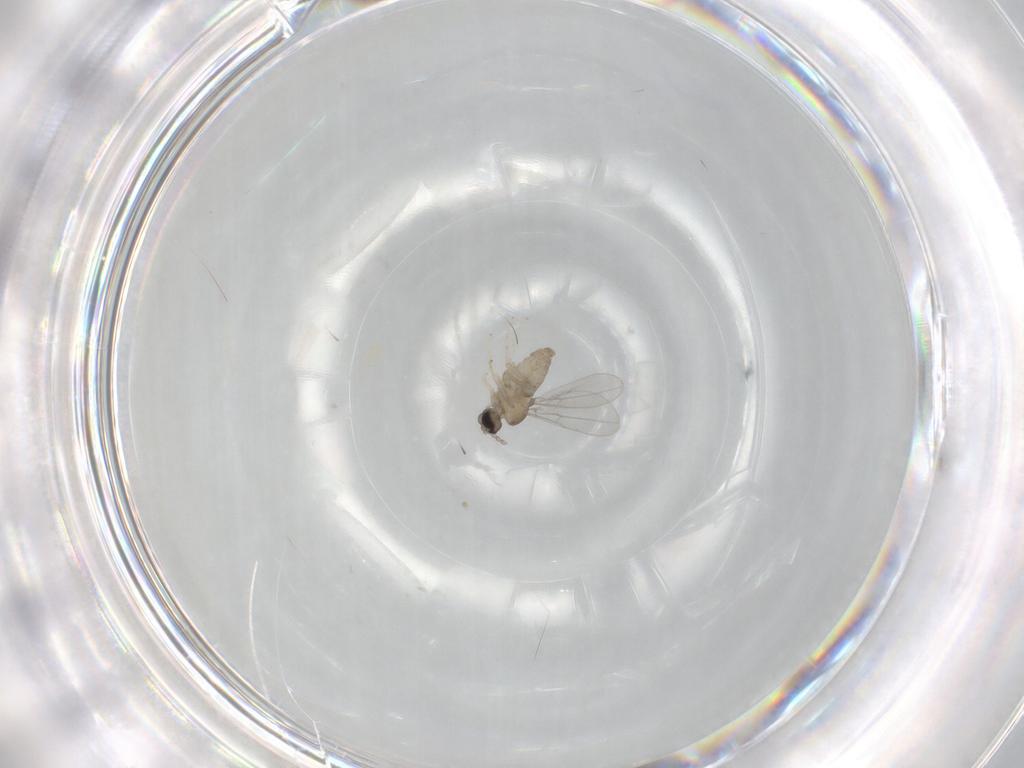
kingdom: Animalia
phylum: Arthropoda
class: Insecta
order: Diptera
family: Cecidomyiidae
